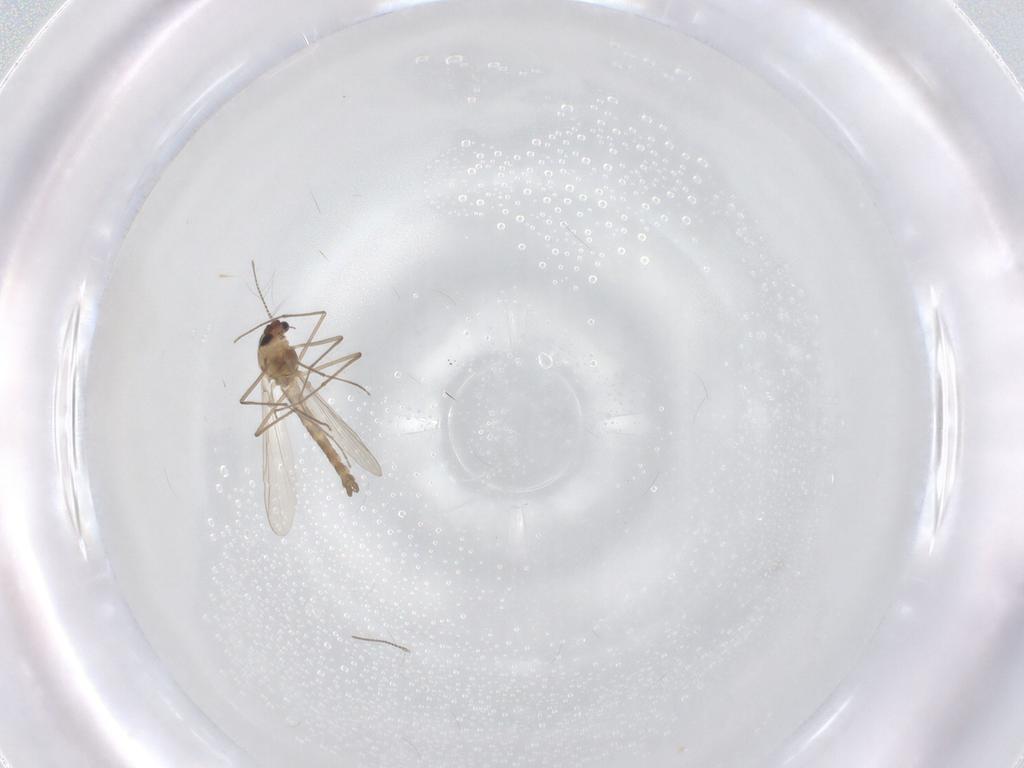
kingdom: Animalia
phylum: Arthropoda
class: Insecta
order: Diptera
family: Chironomidae
